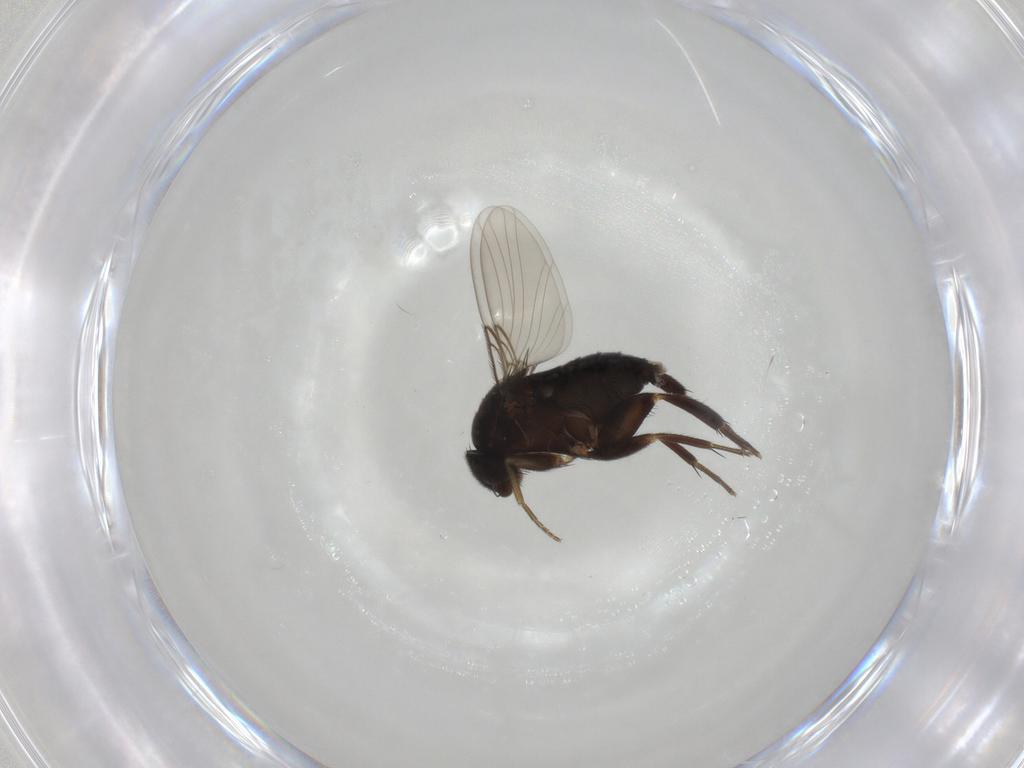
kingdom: Animalia
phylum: Arthropoda
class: Insecta
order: Diptera
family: Phoridae
